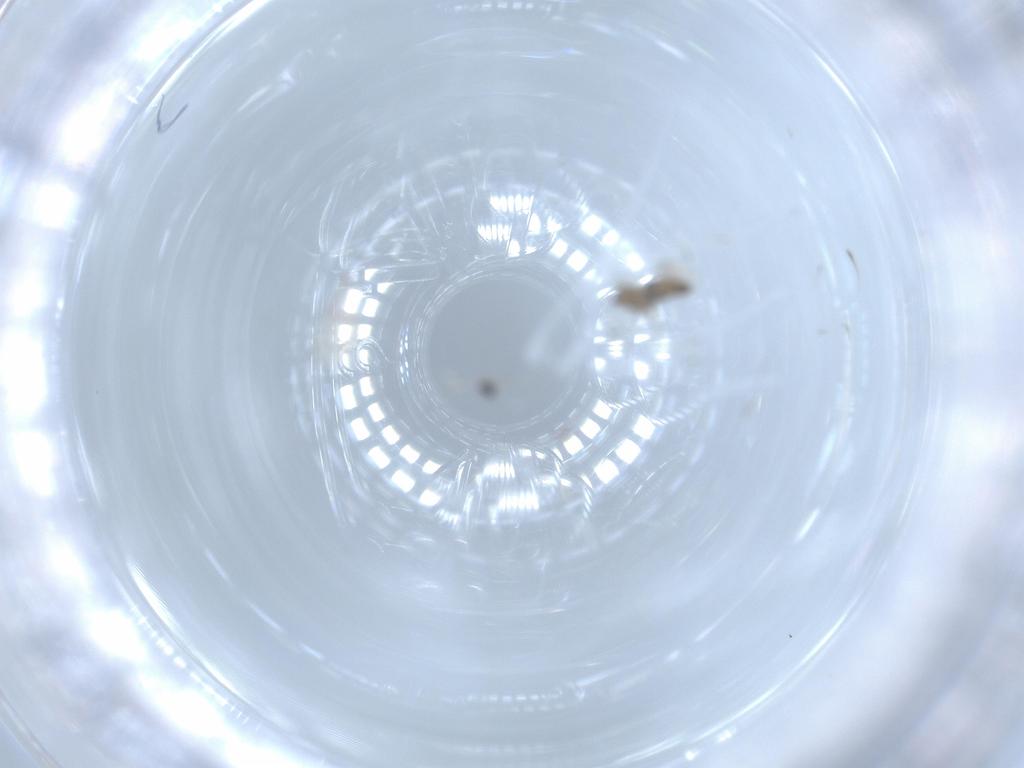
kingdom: Animalia
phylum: Arthropoda
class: Insecta
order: Diptera
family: Cecidomyiidae
